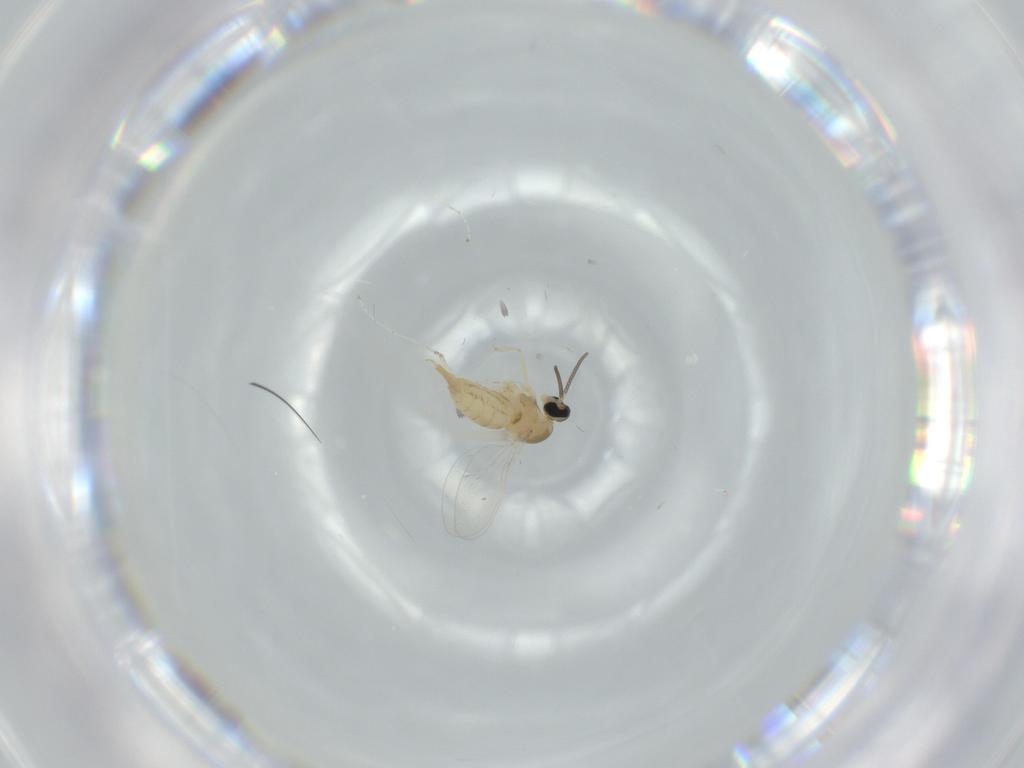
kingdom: Animalia
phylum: Arthropoda
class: Insecta
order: Diptera
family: Cecidomyiidae
